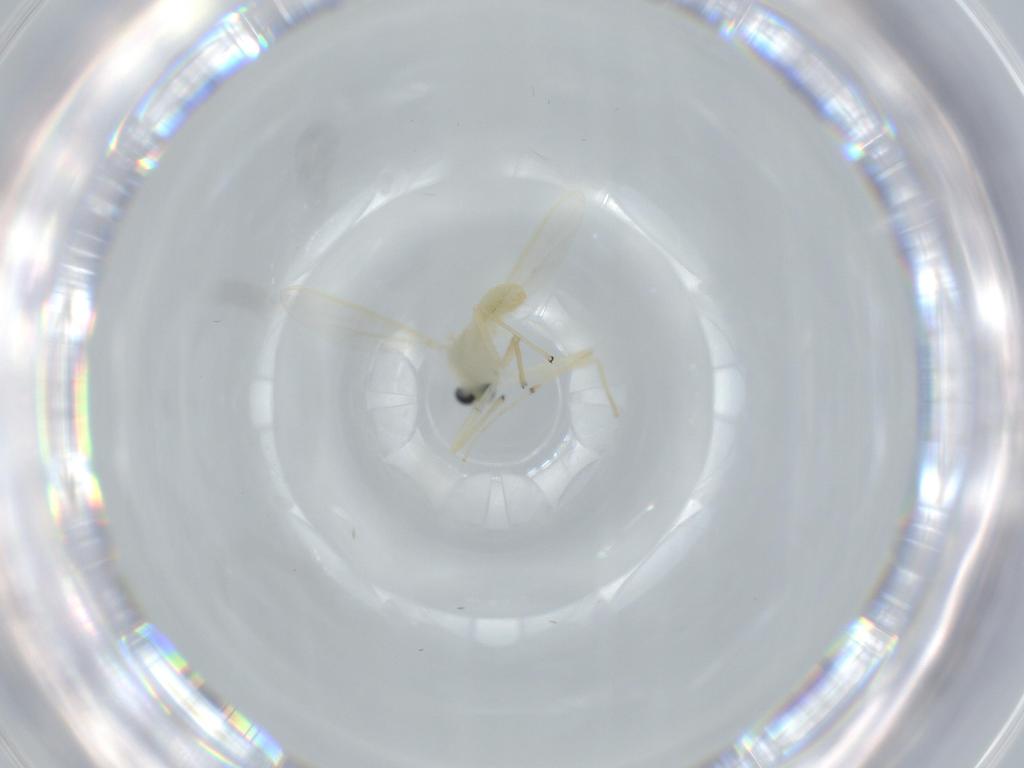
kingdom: Animalia
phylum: Arthropoda
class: Insecta
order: Diptera
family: Chironomidae
